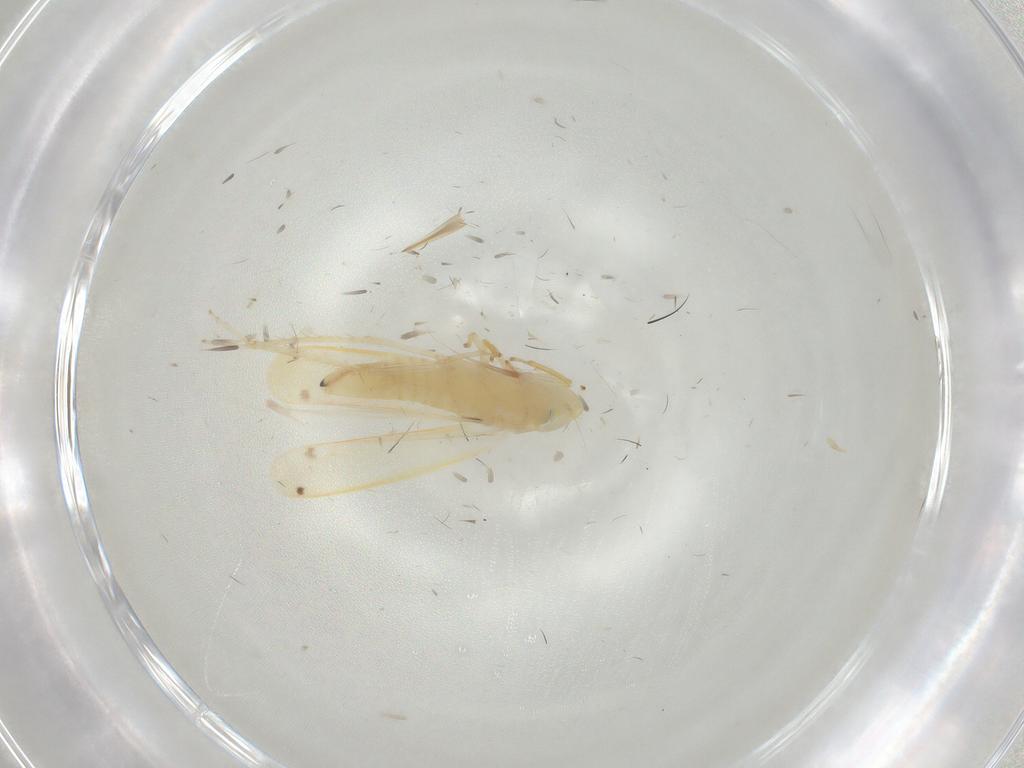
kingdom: Animalia
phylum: Arthropoda
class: Insecta
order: Hemiptera
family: Cicadellidae
